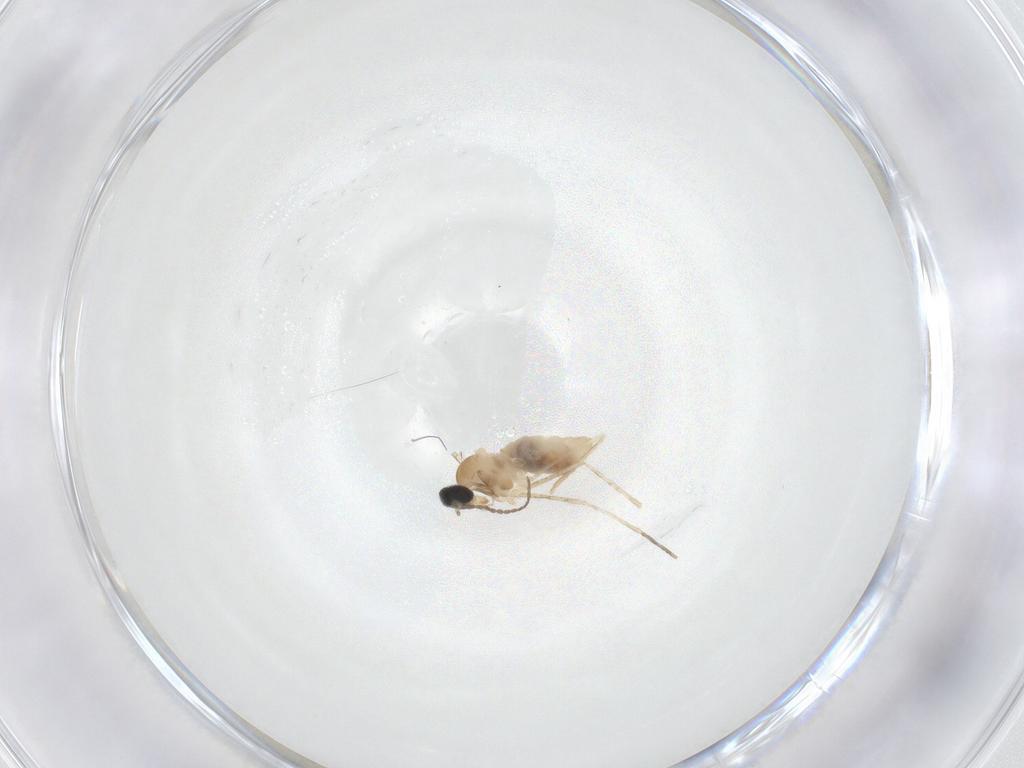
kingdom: Animalia
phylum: Arthropoda
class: Insecta
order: Diptera
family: Cecidomyiidae
